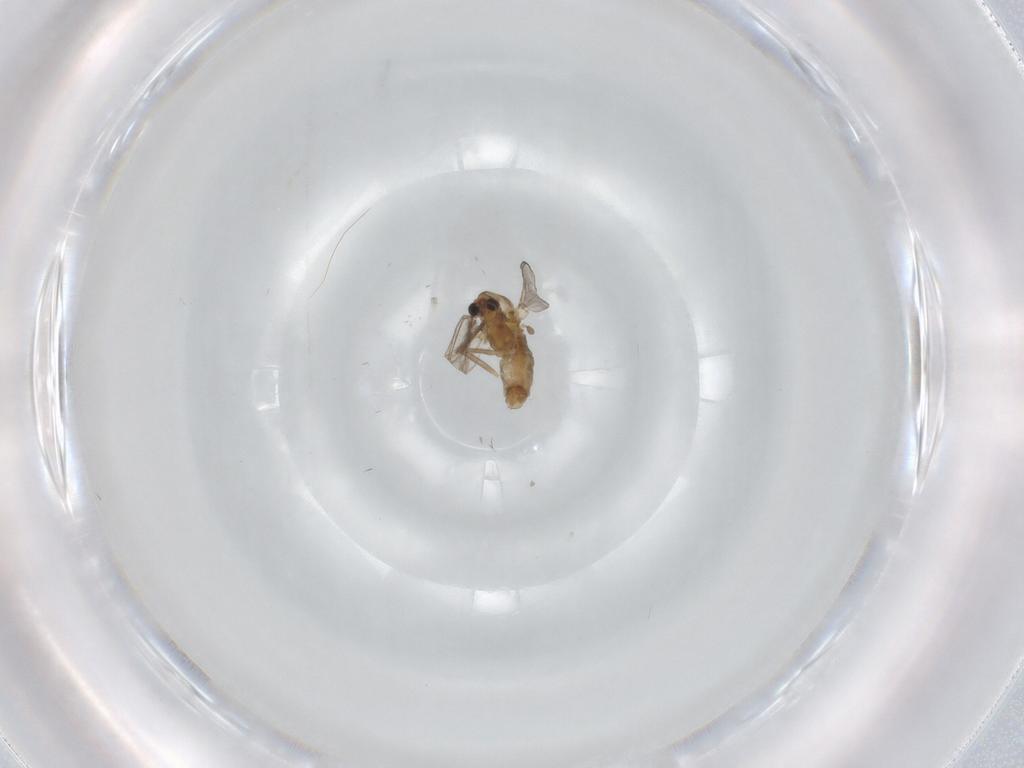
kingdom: Animalia
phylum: Arthropoda
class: Insecta
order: Diptera
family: Chironomidae
